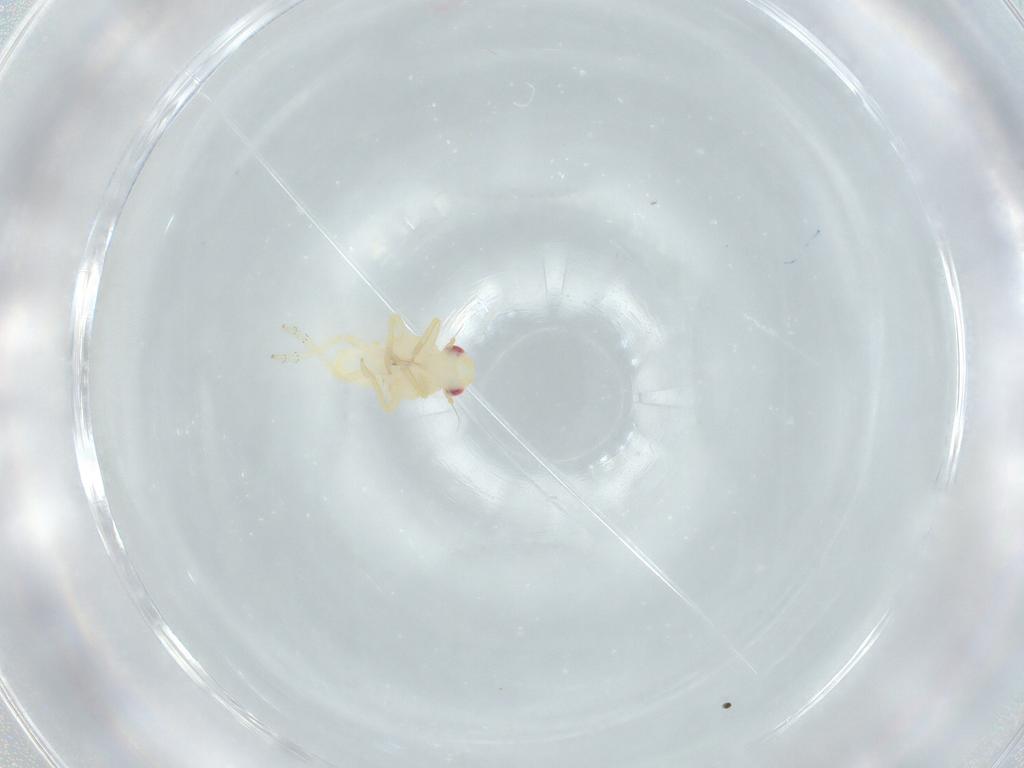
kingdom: Animalia
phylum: Arthropoda
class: Insecta
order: Hemiptera
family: Tropiduchidae
